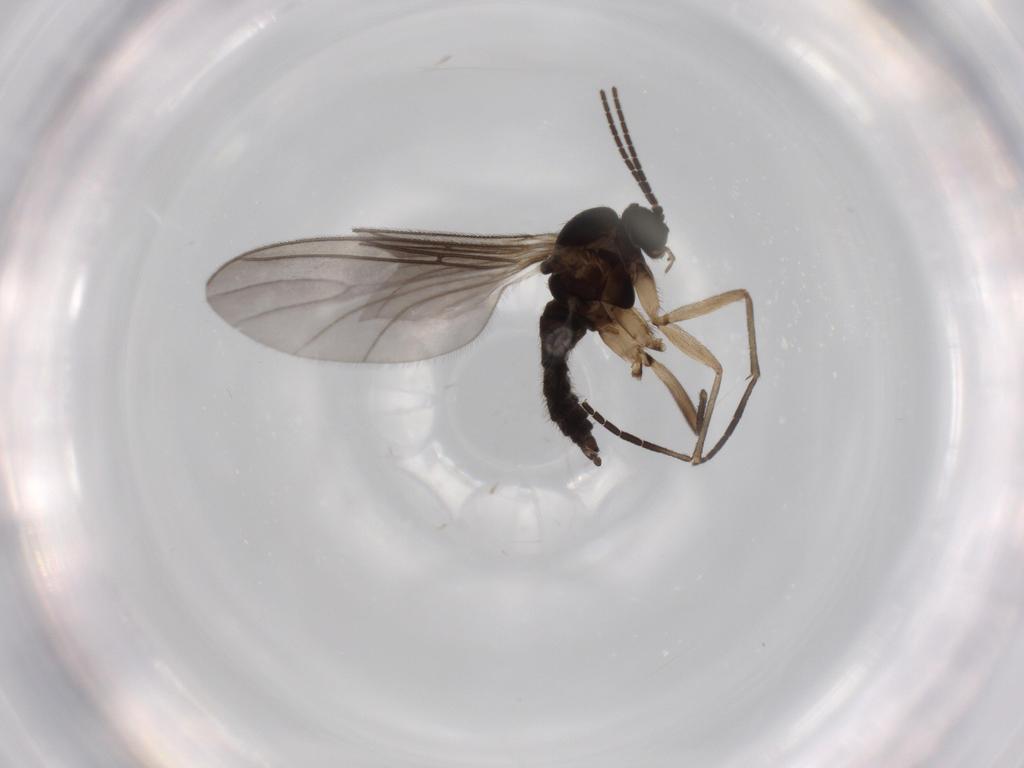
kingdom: Animalia
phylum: Arthropoda
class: Insecta
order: Diptera
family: Sciaridae
